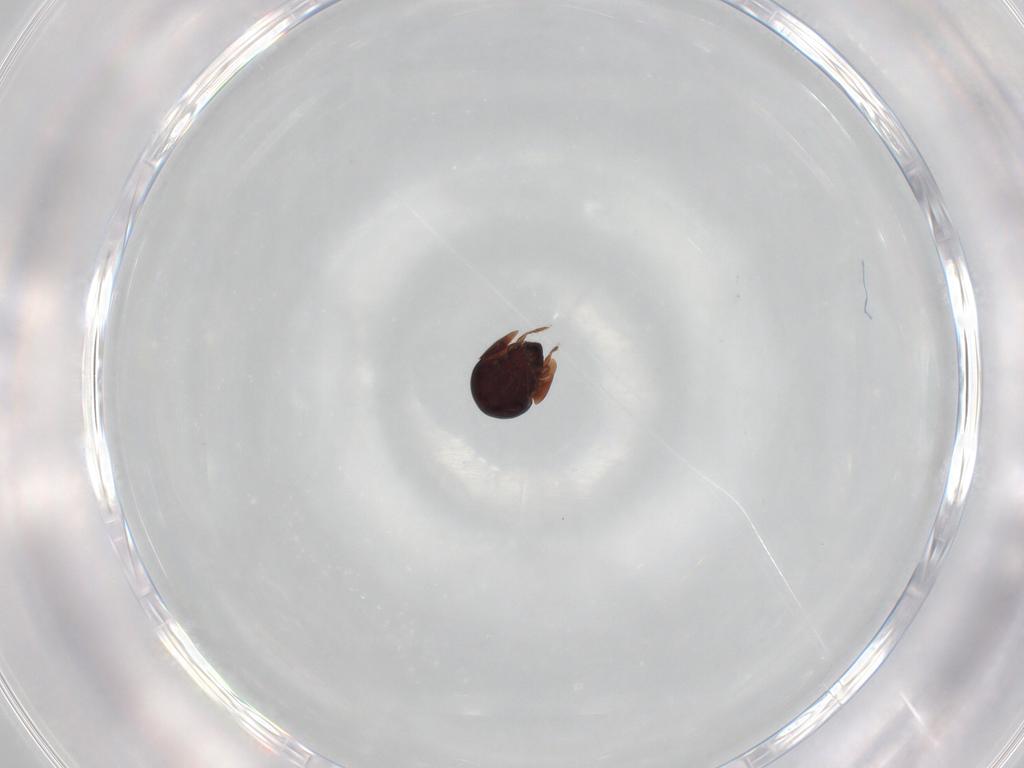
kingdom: Animalia
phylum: Arthropoda
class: Arachnida
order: Sarcoptiformes
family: Galumnidae
